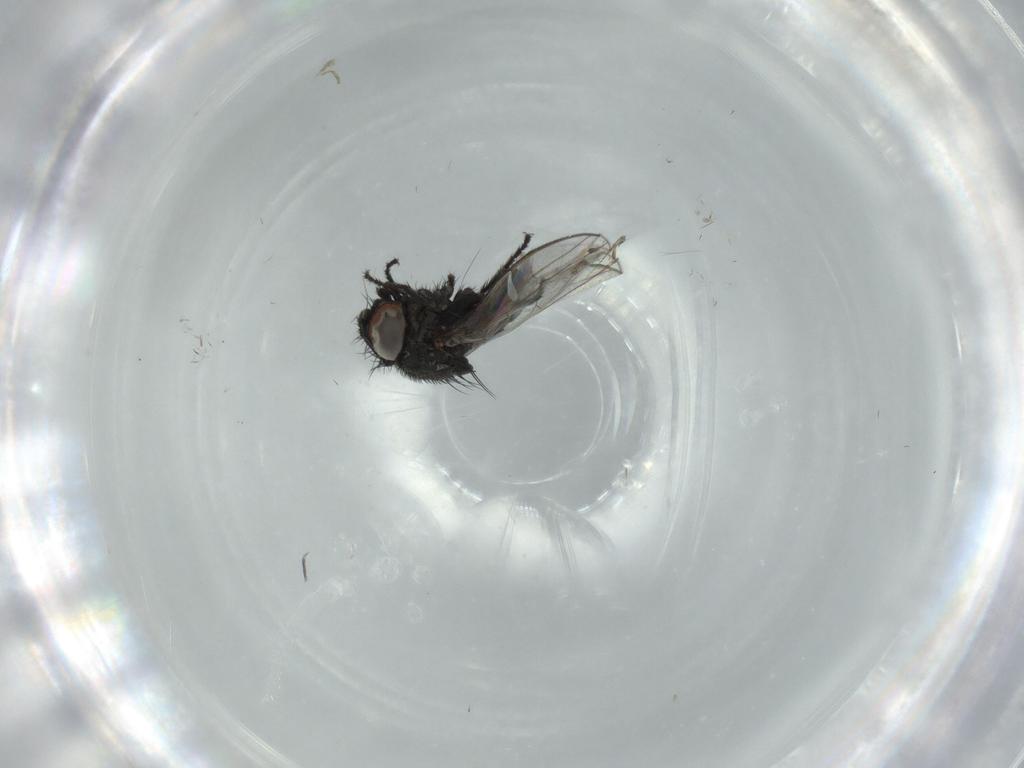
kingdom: Animalia
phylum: Arthropoda
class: Insecta
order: Diptera
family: Milichiidae
